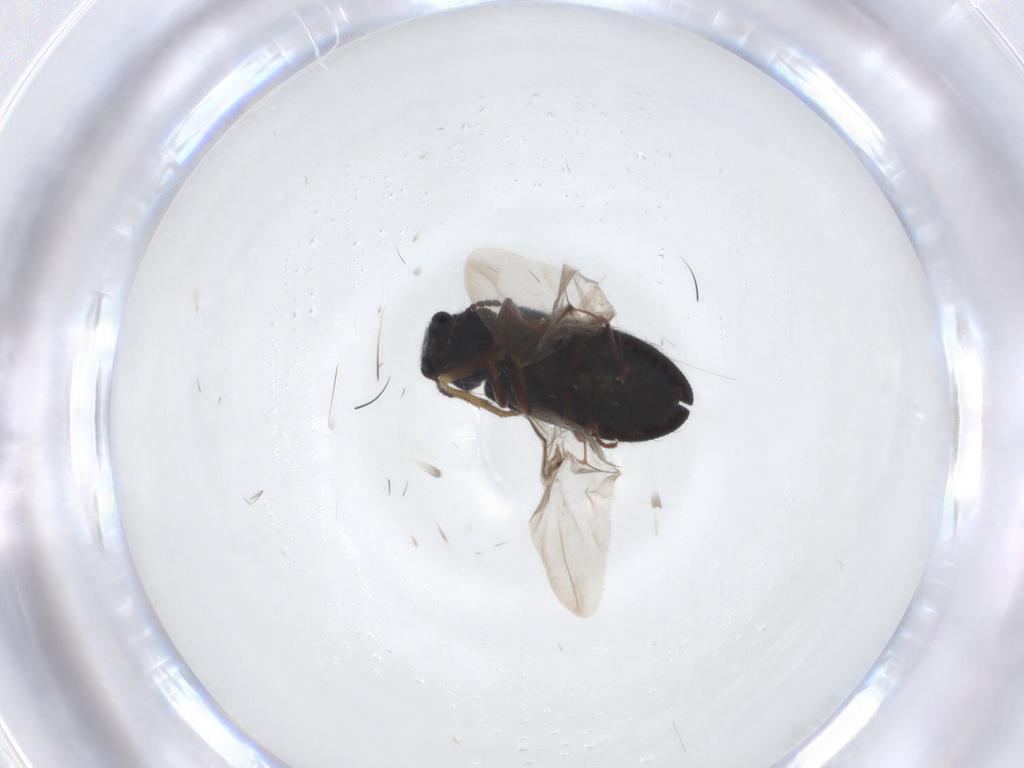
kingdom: Animalia
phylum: Arthropoda
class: Insecta
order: Coleoptera
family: Melyridae
